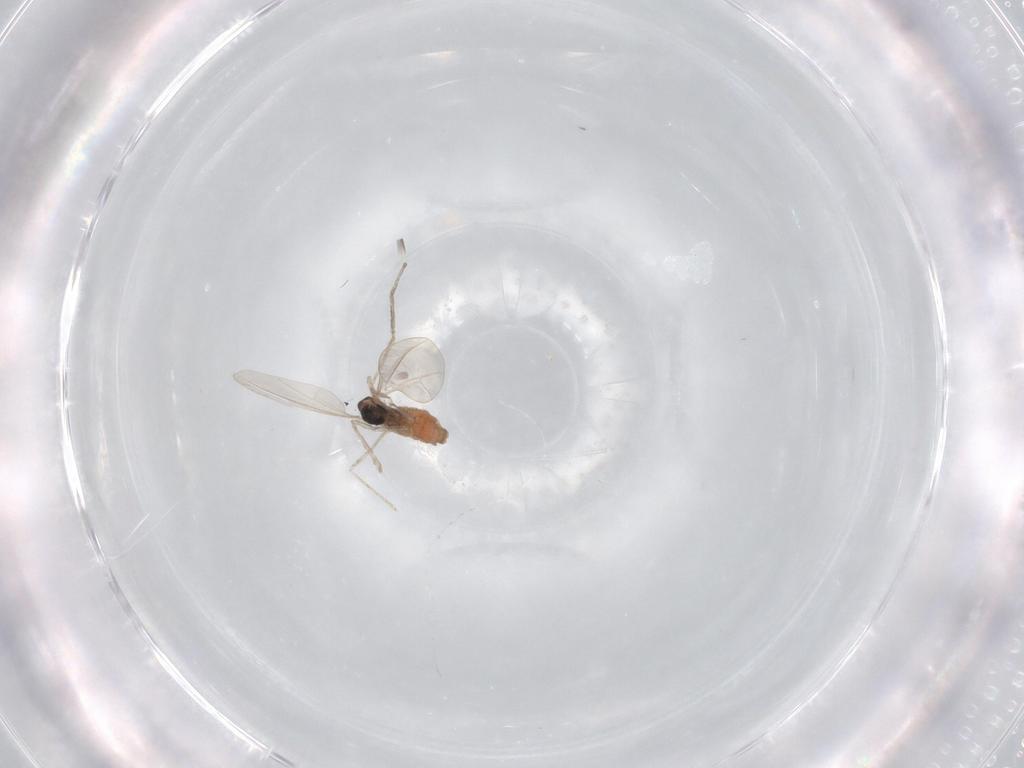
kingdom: Animalia
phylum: Arthropoda
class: Insecta
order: Diptera
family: Cecidomyiidae
